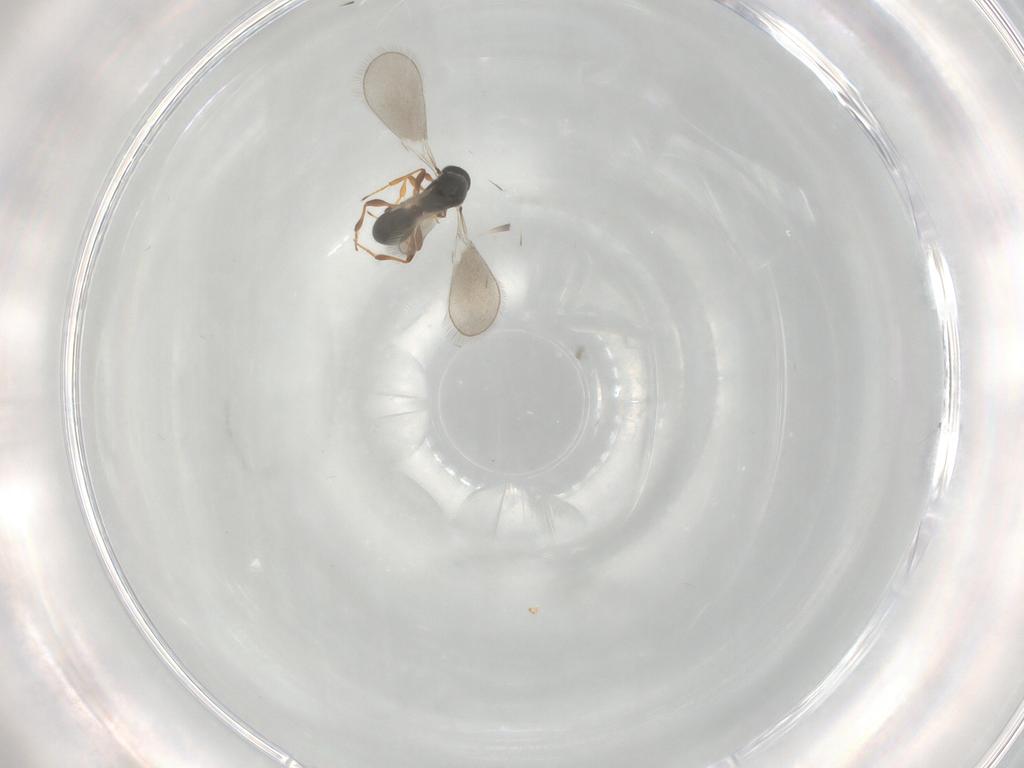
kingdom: Animalia
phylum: Arthropoda
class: Insecta
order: Hymenoptera
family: Platygastridae
